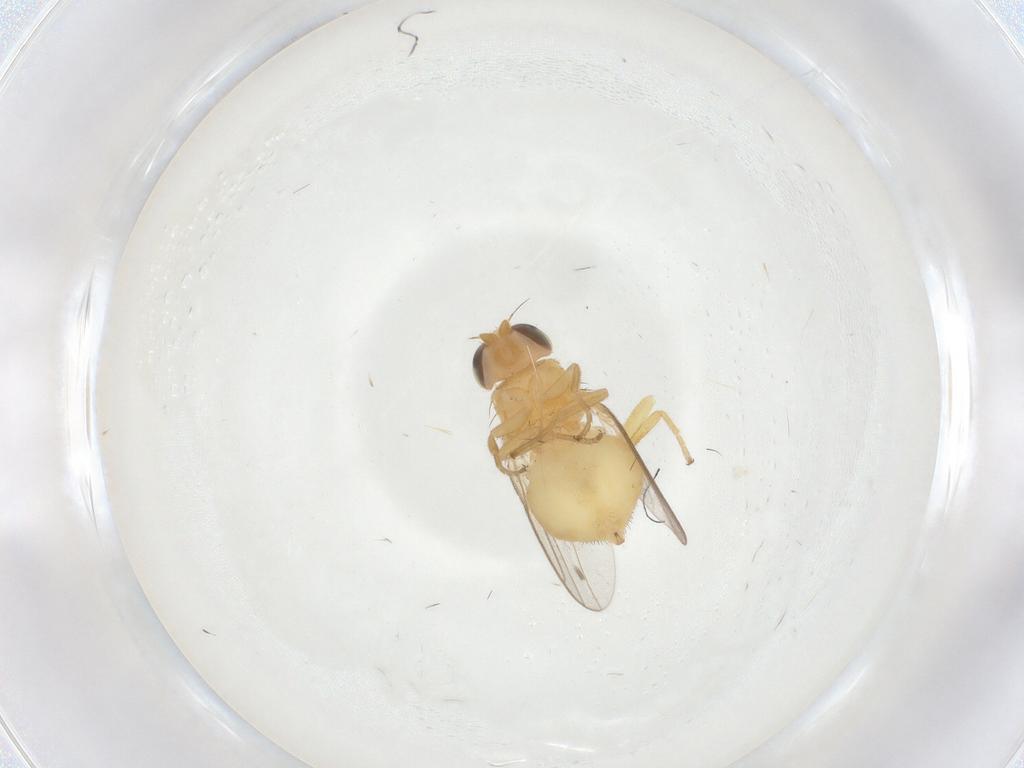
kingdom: Animalia
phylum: Arthropoda
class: Insecta
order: Diptera
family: Chloropidae
